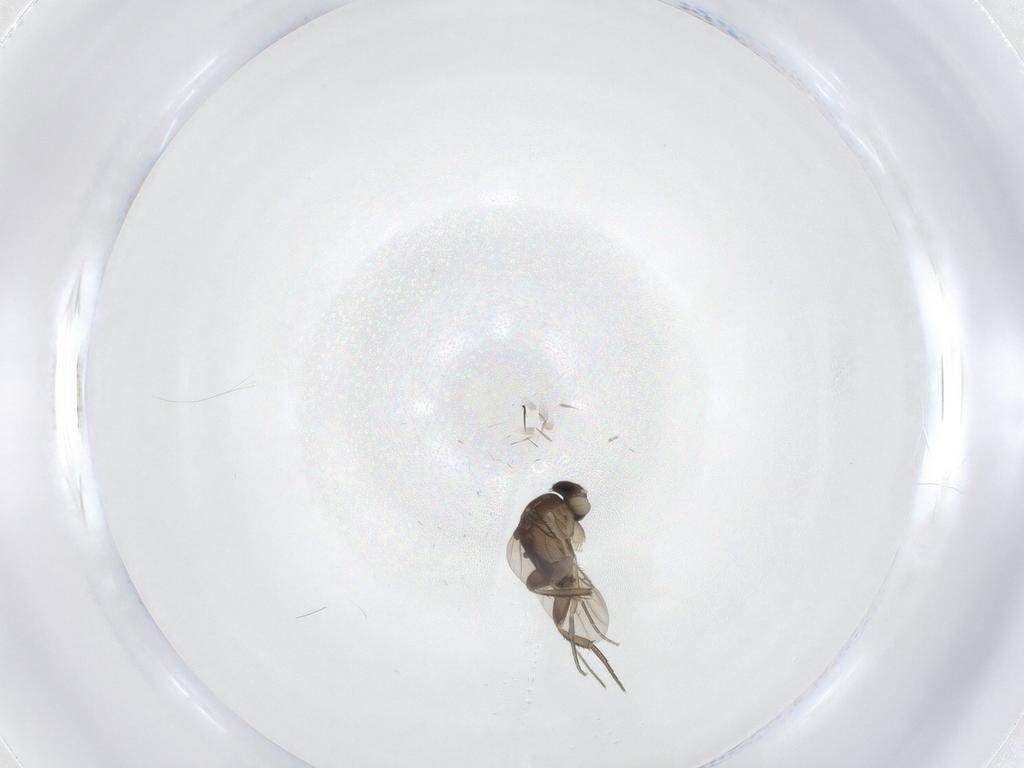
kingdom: Animalia
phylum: Arthropoda
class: Insecta
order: Diptera
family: Phoridae
